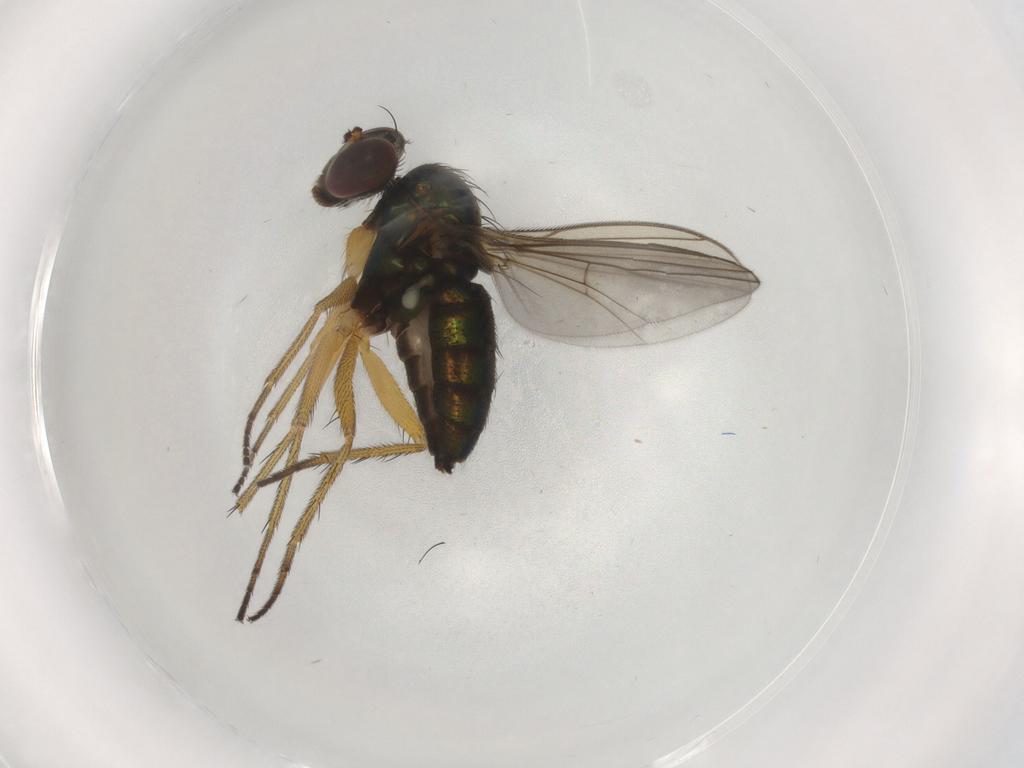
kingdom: Animalia
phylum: Arthropoda
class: Insecta
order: Diptera
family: Dolichopodidae
